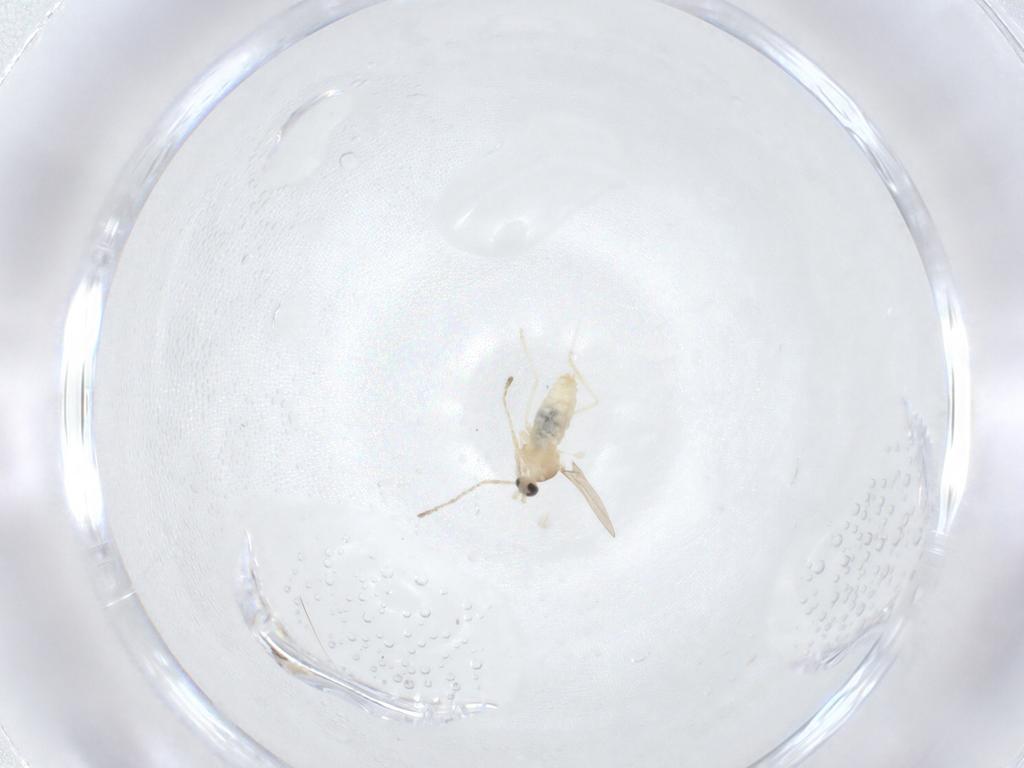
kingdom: Animalia
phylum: Arthropoda
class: Insecta
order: Diptera
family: Cecidomyiidae
